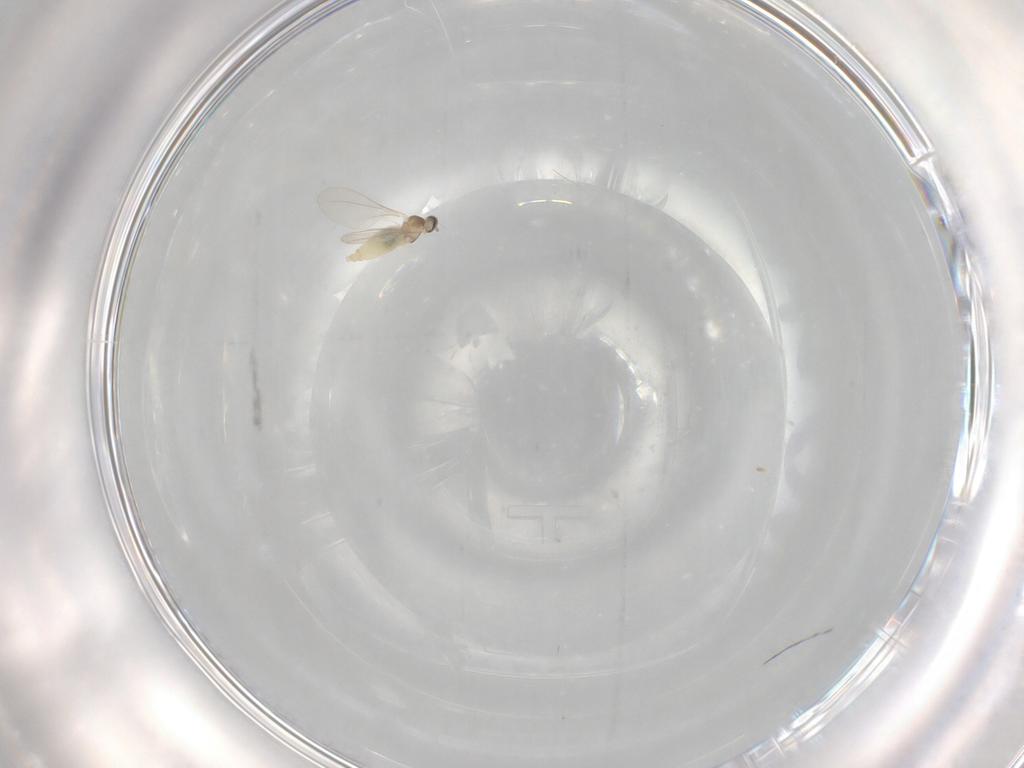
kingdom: Animalia
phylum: Arthropoda
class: Insecta
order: Diptera
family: Cecidomyiidae
